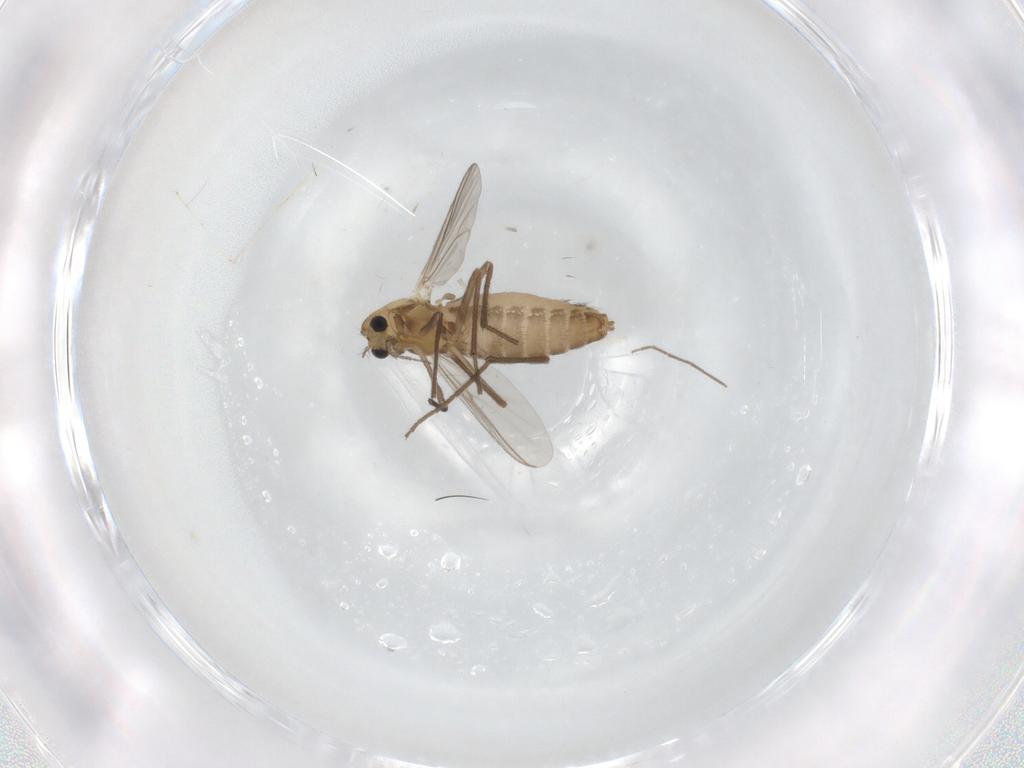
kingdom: Animalia
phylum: Arthropoda
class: Insecta
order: Diptera
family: Chironomidae
